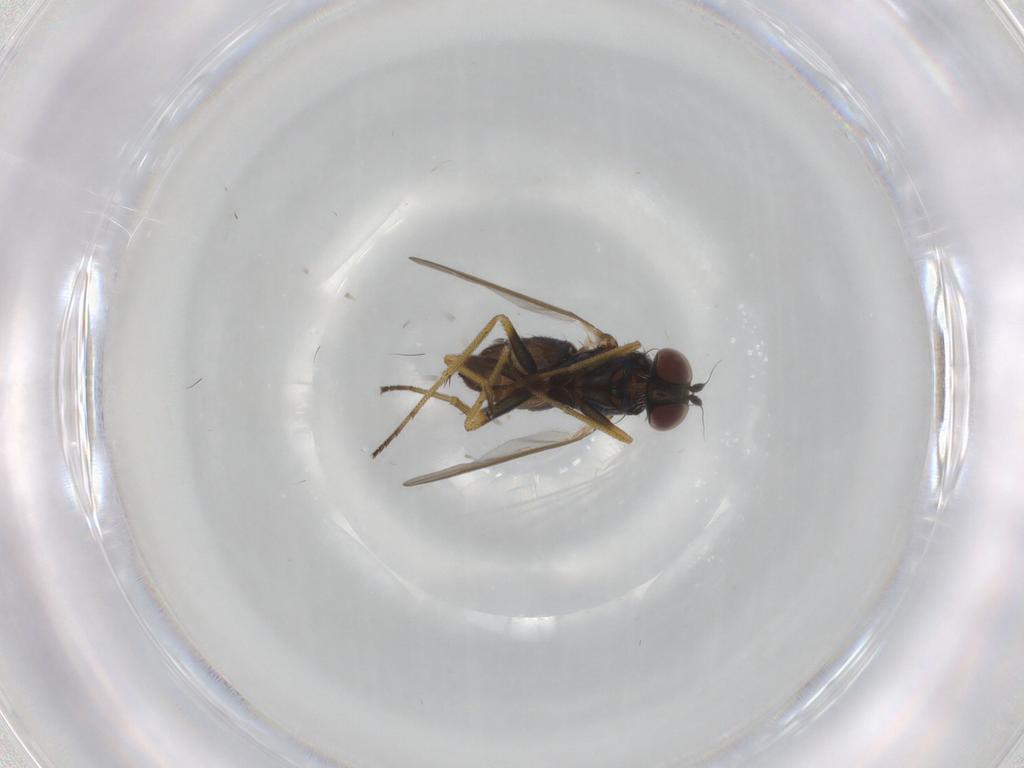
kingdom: Animalia
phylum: Arthropoda
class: Insecta
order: Diptera
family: Dolichopodidae
